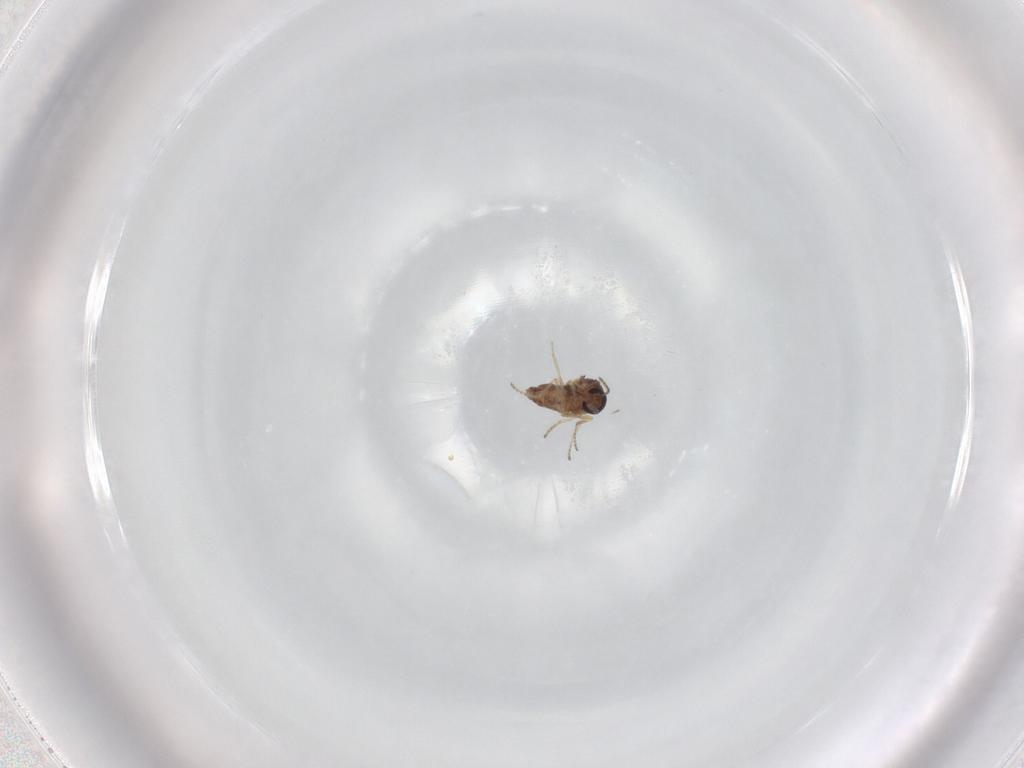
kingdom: Animalia
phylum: Arthropoda
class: Insecta
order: Diptera
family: Ceratopogonidae
